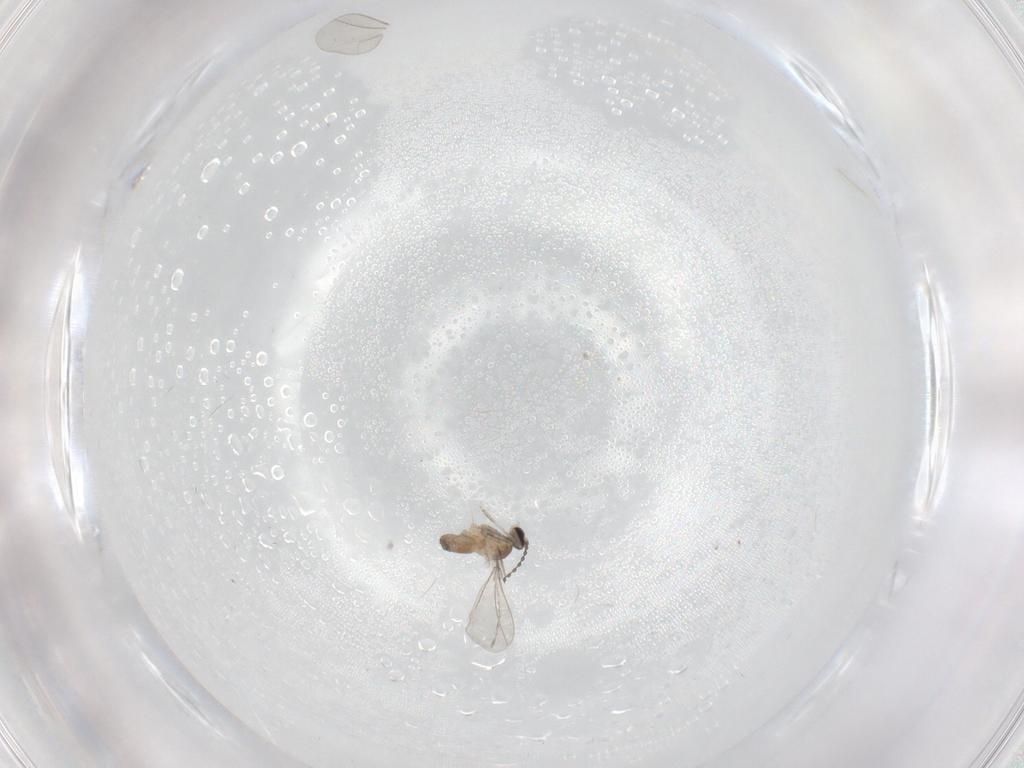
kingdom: Animalia
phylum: Arthropoda
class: Insecta
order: Diptera
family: Cecidomyiidae
